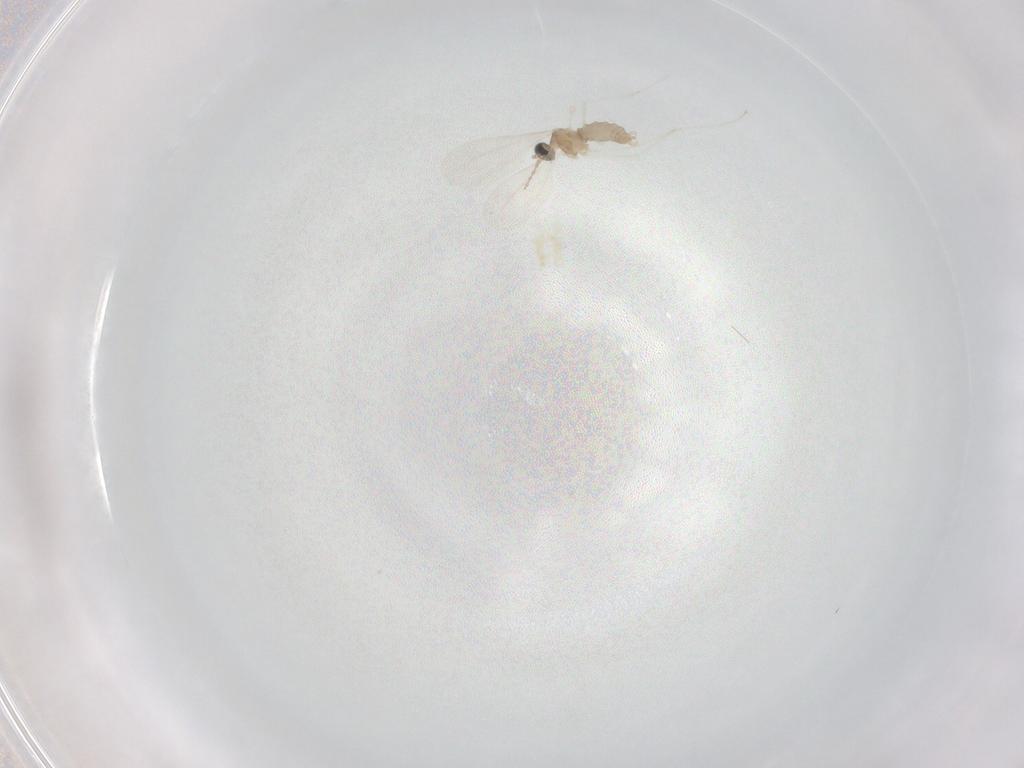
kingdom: Animalia
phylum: Arthropoda
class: Insecta
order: Diptera
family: Cecidomyiidae
